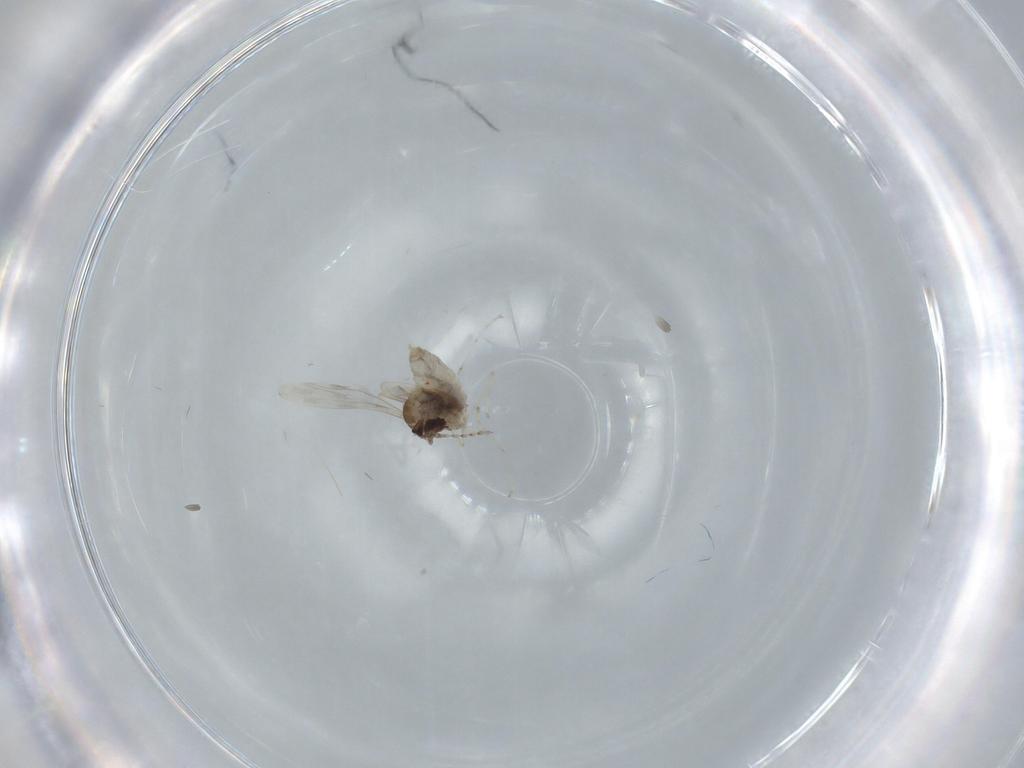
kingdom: Animalia
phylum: Arthropoda
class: Insecta
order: Diptera
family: Cecidomyiidae
